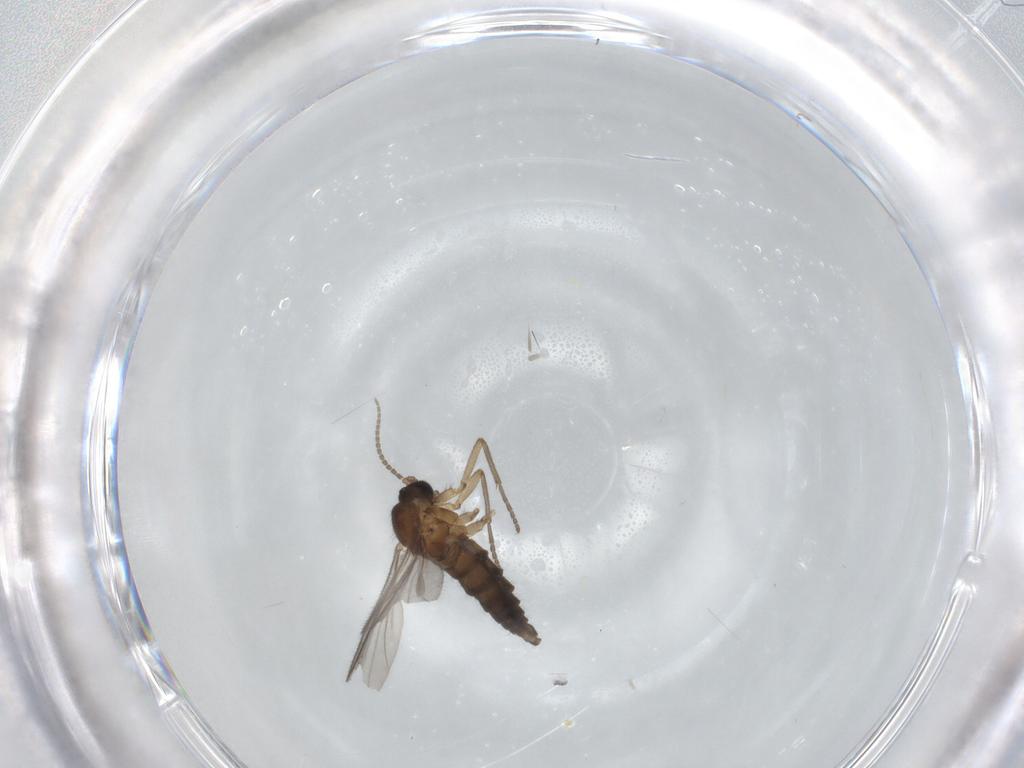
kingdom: Animalia
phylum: Arthropoda
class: Insecta
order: Diptera
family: Sciaridae
